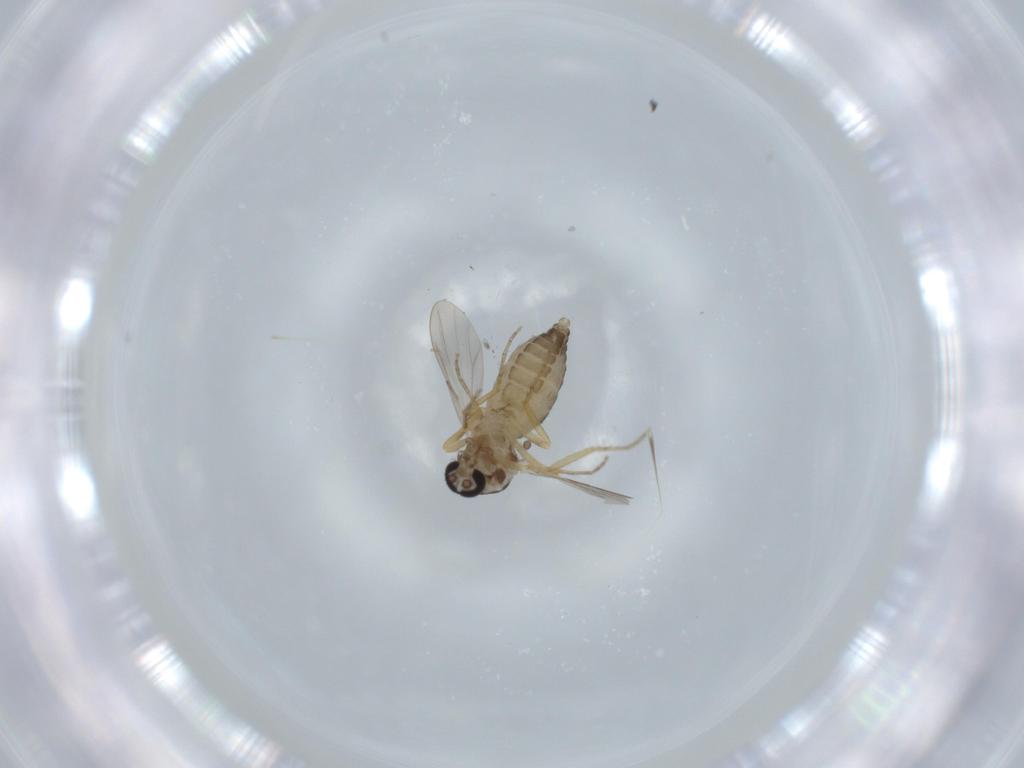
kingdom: Animalia
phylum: Arthropoda
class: Insecta
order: Diptera
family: Ceratopogonidae
